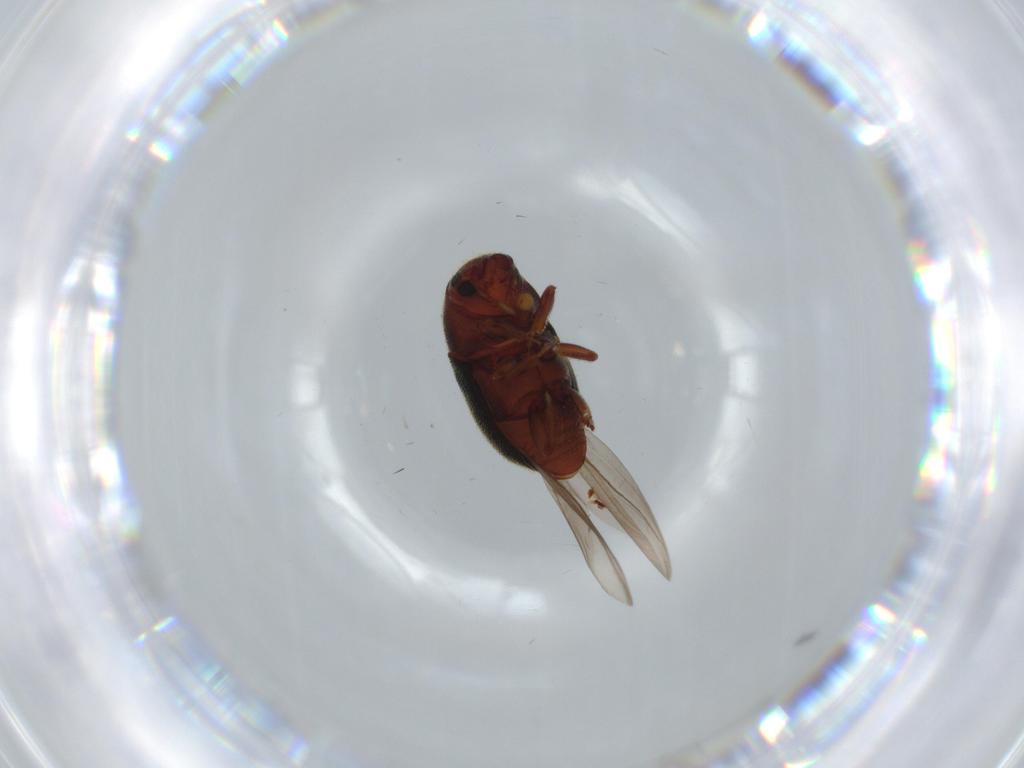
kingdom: Animalia
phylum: Arthropoda
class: Insecta
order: Coleoptera
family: Curculionidae
